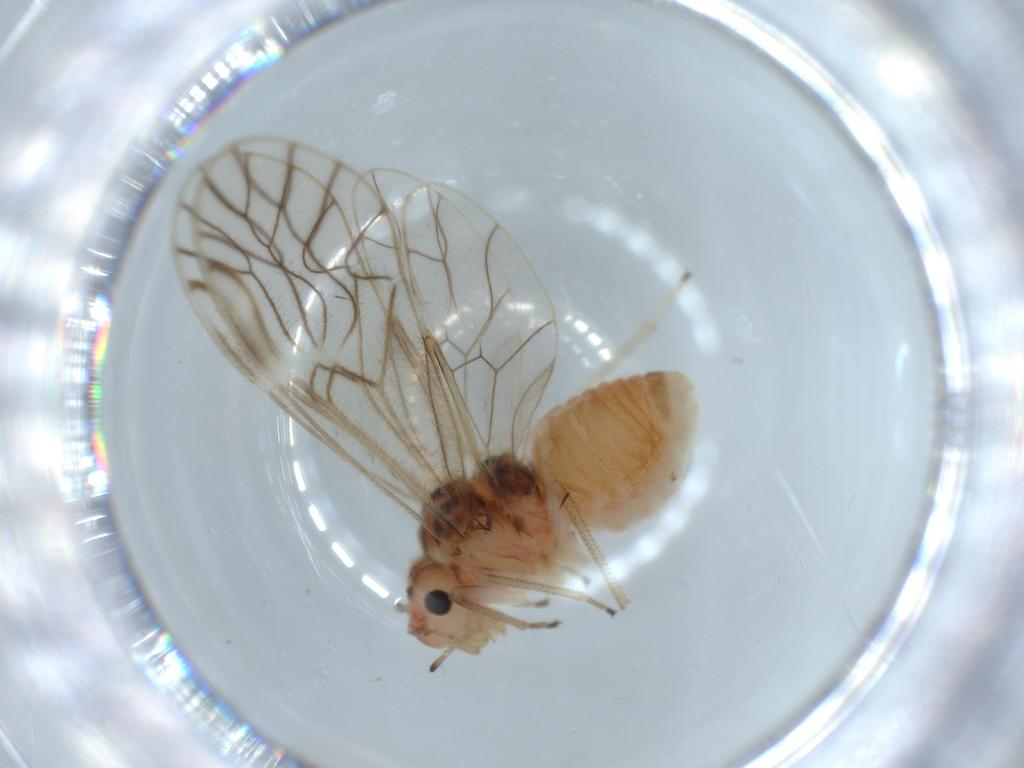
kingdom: Animalia
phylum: Arthropoda
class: Insecta
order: Psocodea
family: Amphipsocidae
